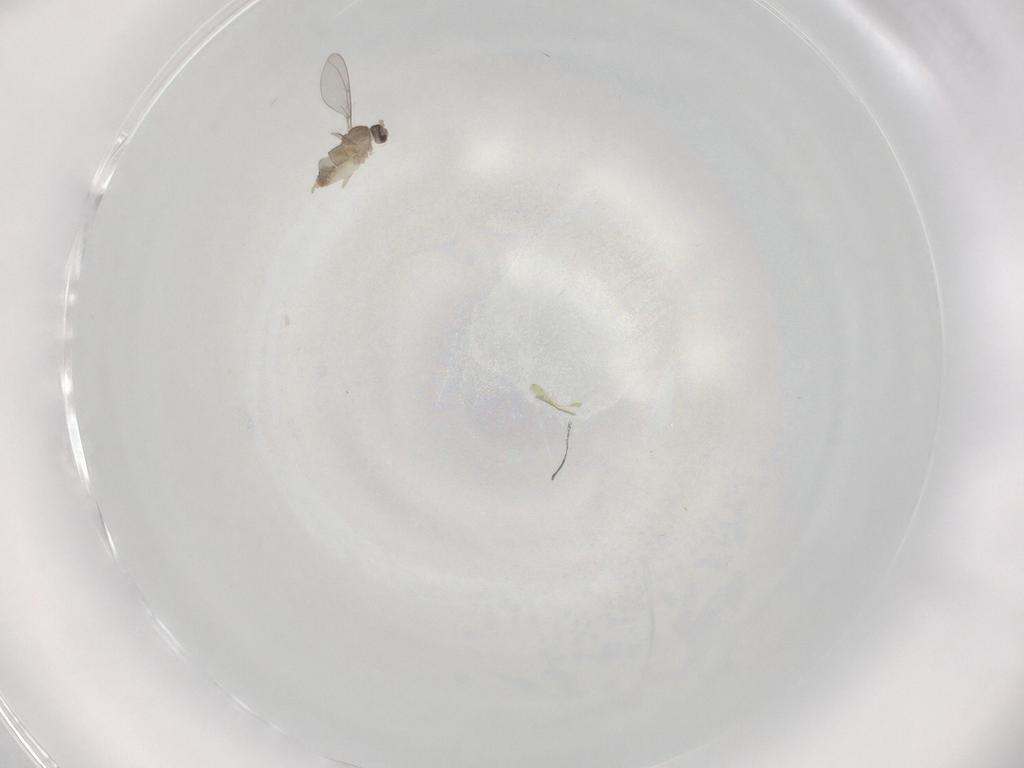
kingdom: Animalia
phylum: Arthropoda
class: Insecta
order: Diptera
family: Cecidomyiidae
